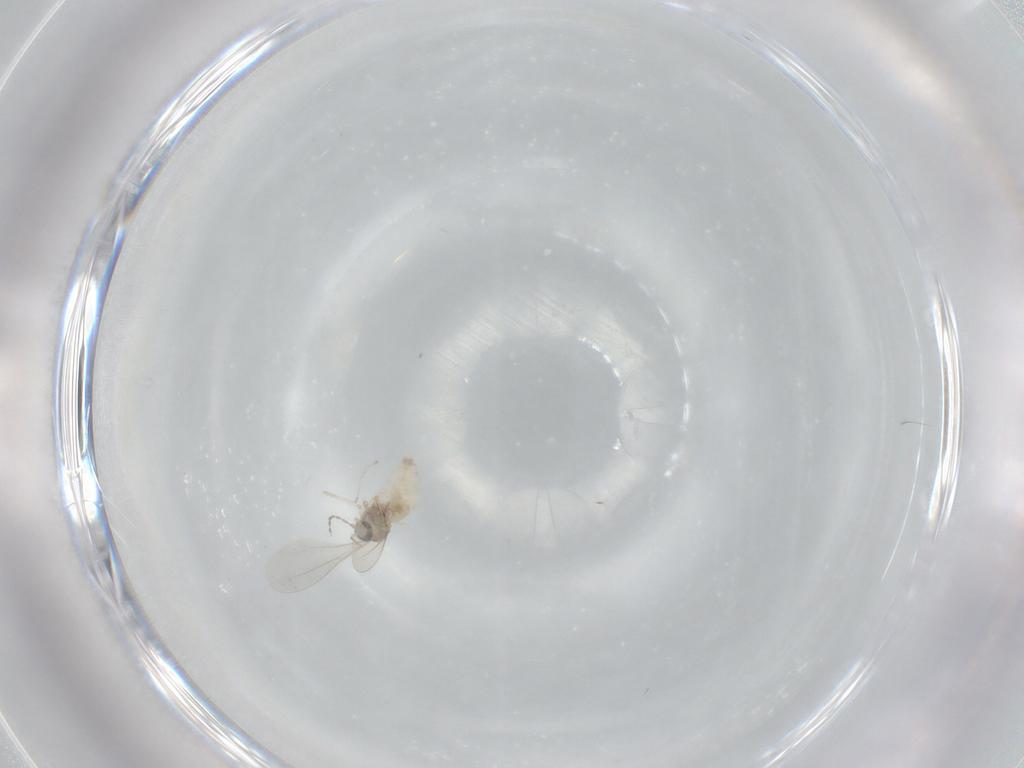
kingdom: Animalia
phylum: Arthropoda
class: Insecta
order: Diptera
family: Cecidomyiidae
